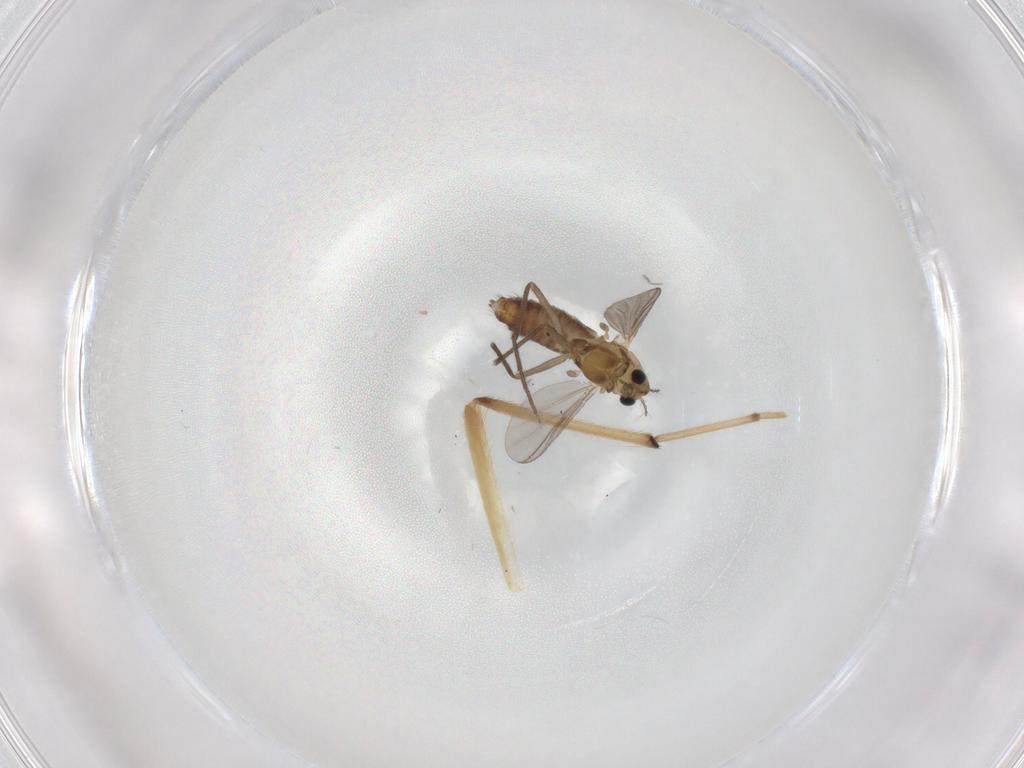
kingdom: Animalia
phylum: Arthropoda
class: Insecta
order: Diptera
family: Chironomidae
